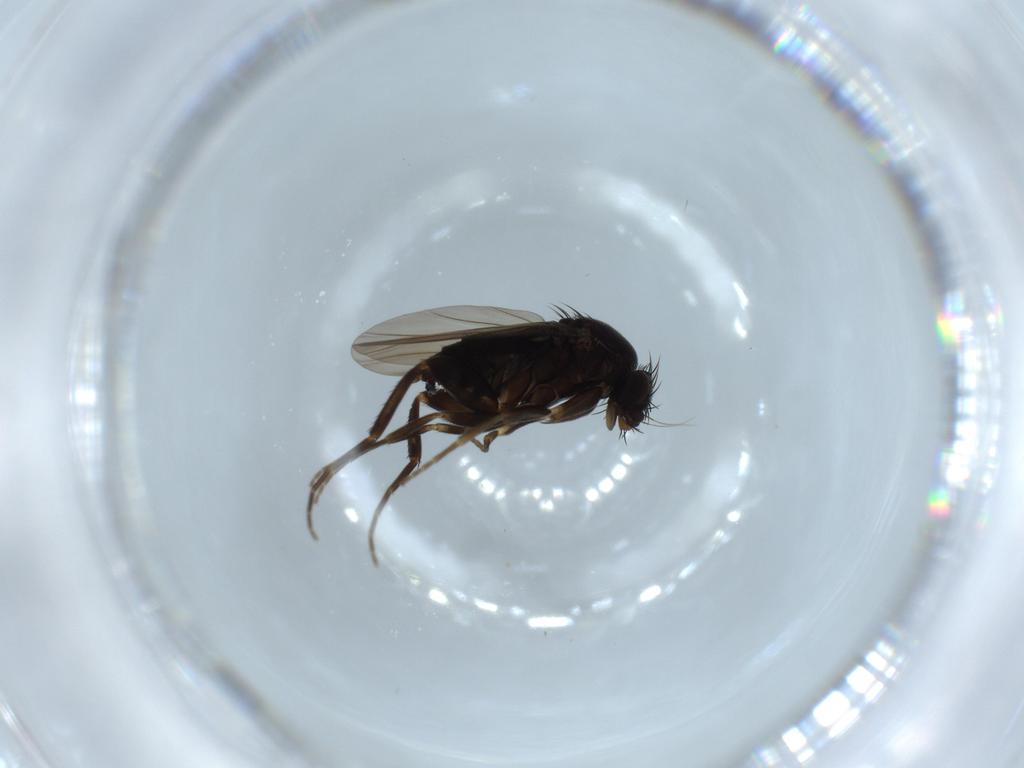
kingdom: Animalia
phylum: Arthropoda
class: Insecta
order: Diptera
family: Phoridae
